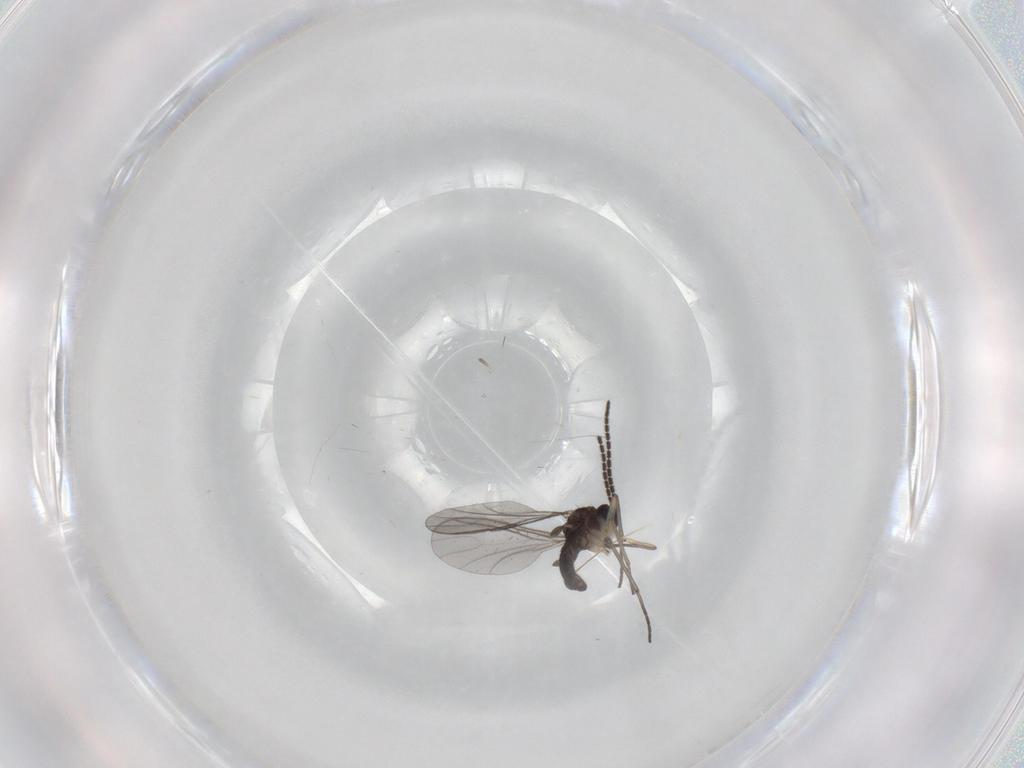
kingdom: Animalia
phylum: Arthropoda
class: Insecta
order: Diptera
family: Sciaridae
